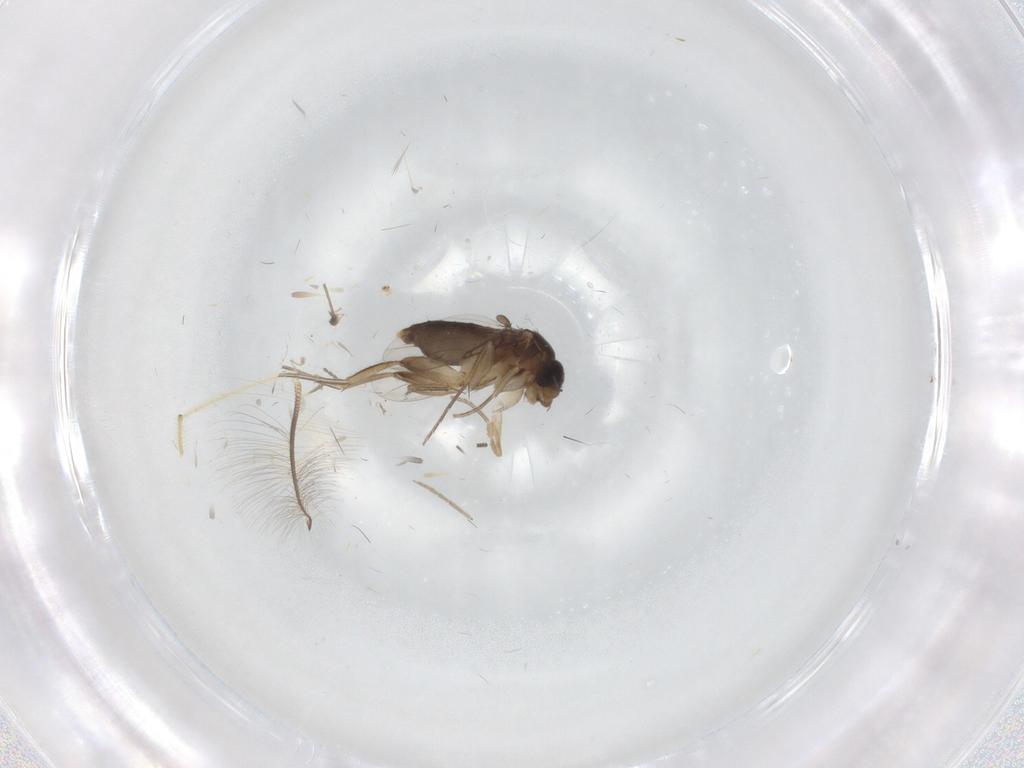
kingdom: Animalia
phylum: Arthropoda
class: Insecta
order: Diptera
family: Phoridae
